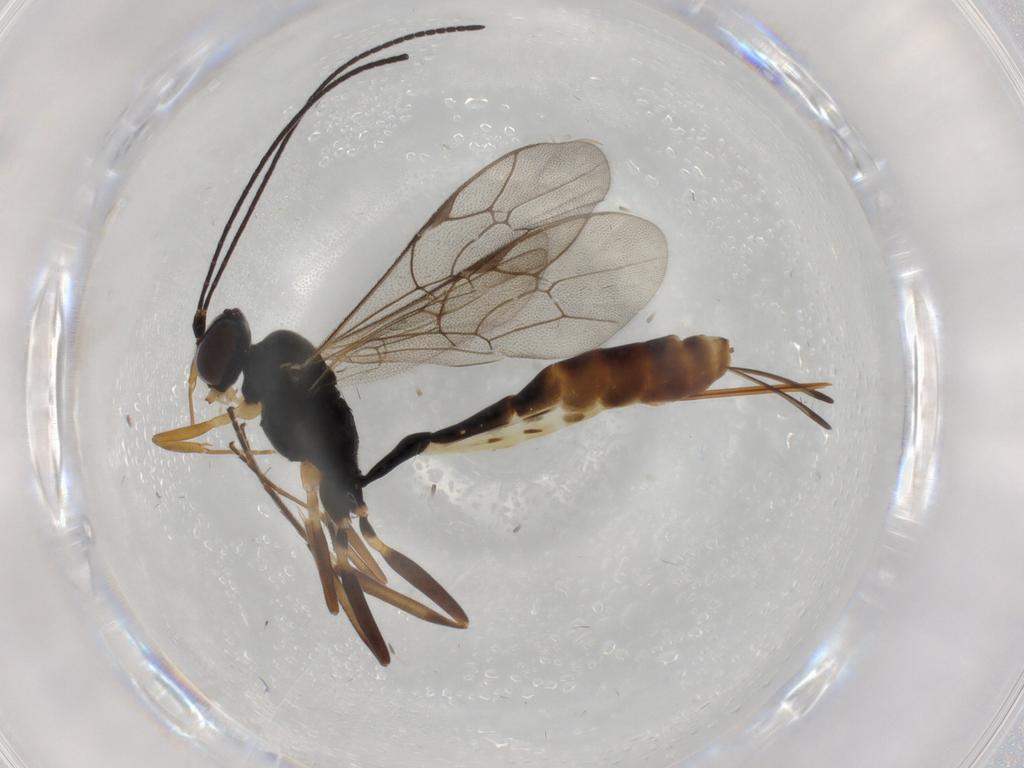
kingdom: Animalia
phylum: Arthropoda
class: Insecta
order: Hymenoptera
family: Ichneumonidae
